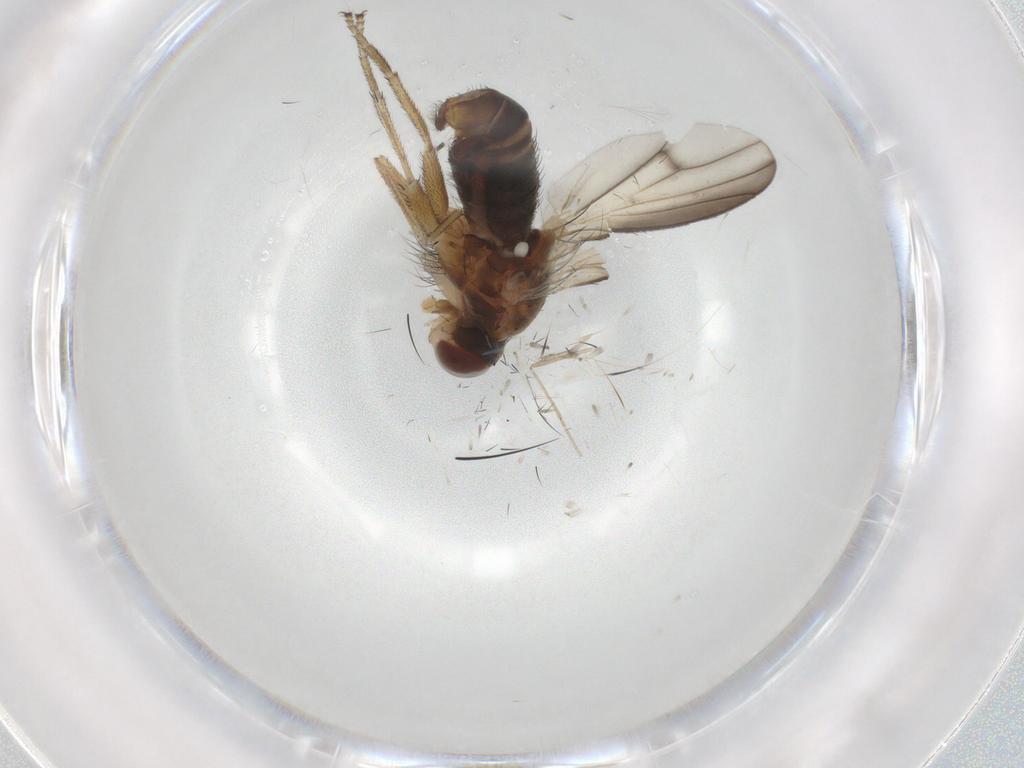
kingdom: Animalia
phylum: Arthropoda
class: Insecta
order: Diptera
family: Heleomyzidae
